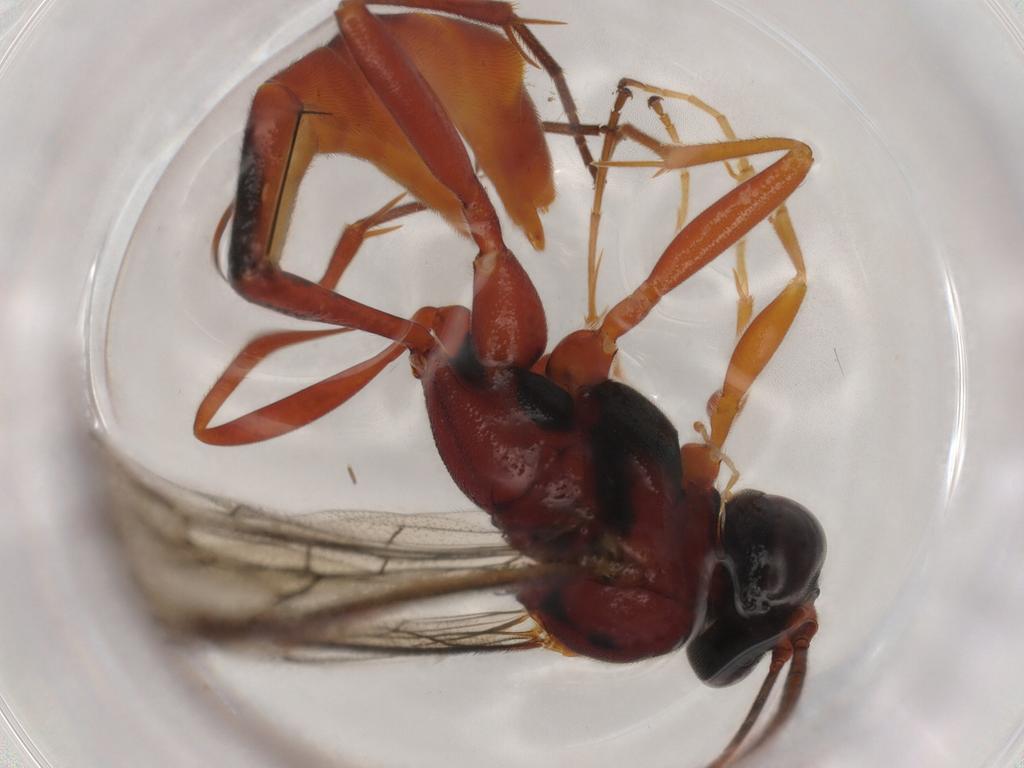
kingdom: Animalia
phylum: Arthropoda
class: Insecta
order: Hymenoptera
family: Ichneumonidae
